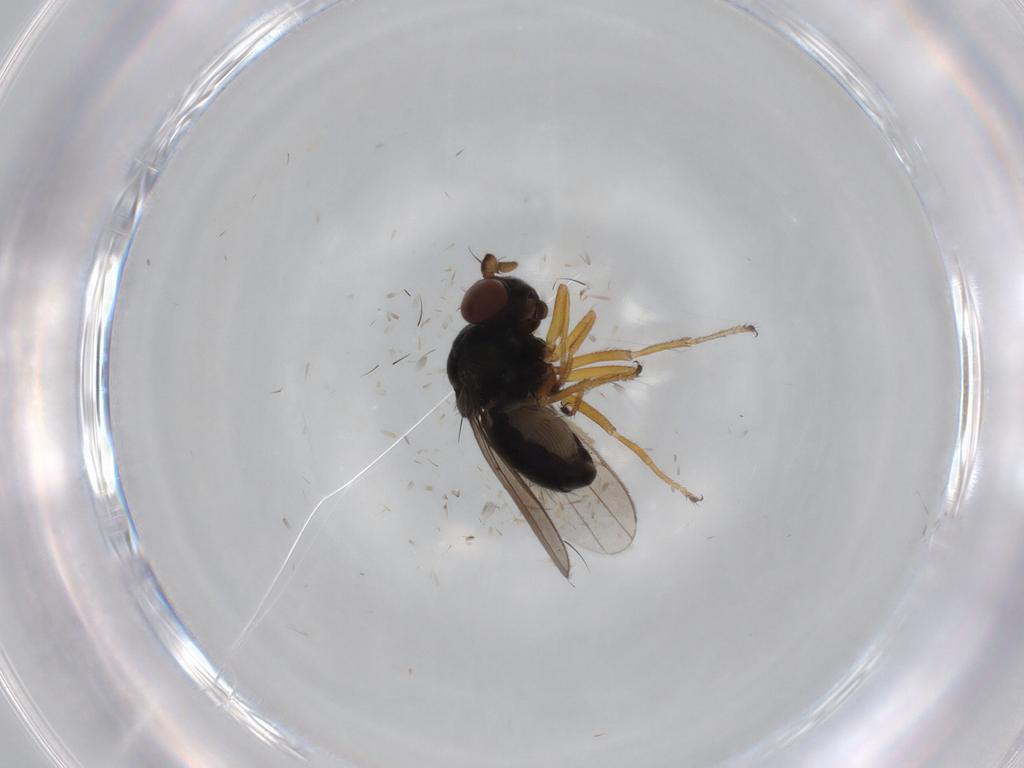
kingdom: Animalia
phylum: Arthropoda
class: Insecta
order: Diptera
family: Ephydridae
